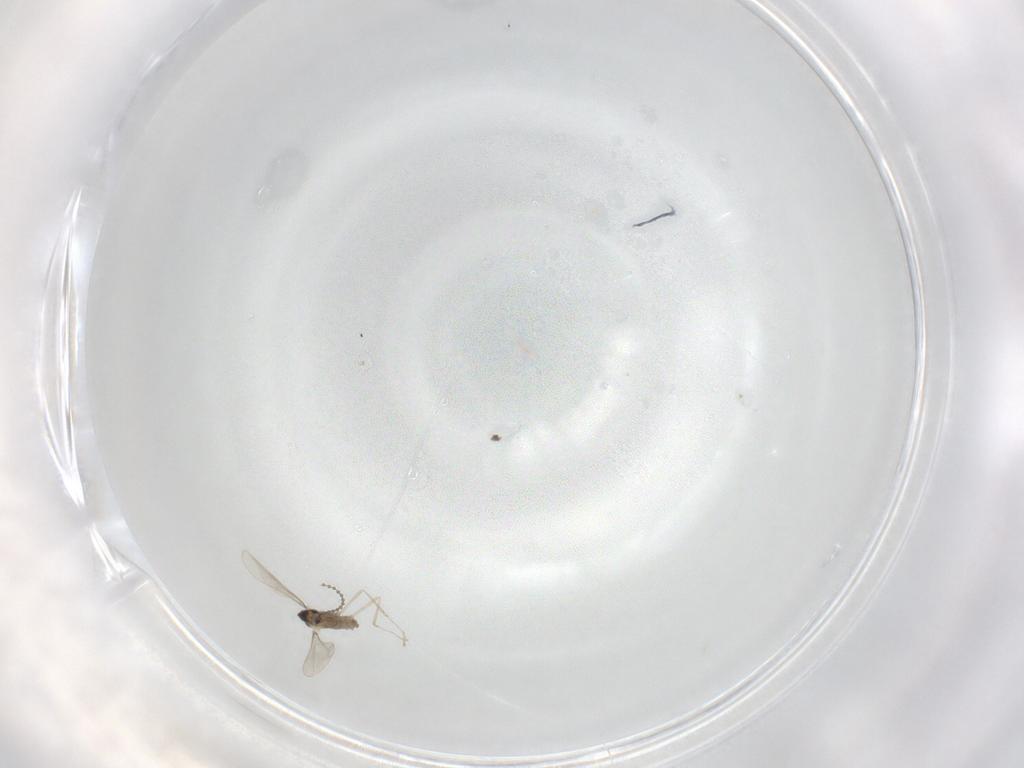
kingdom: Animalia
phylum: Arthropoda
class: Insecta
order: Diptera
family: Cecidomyiidae
